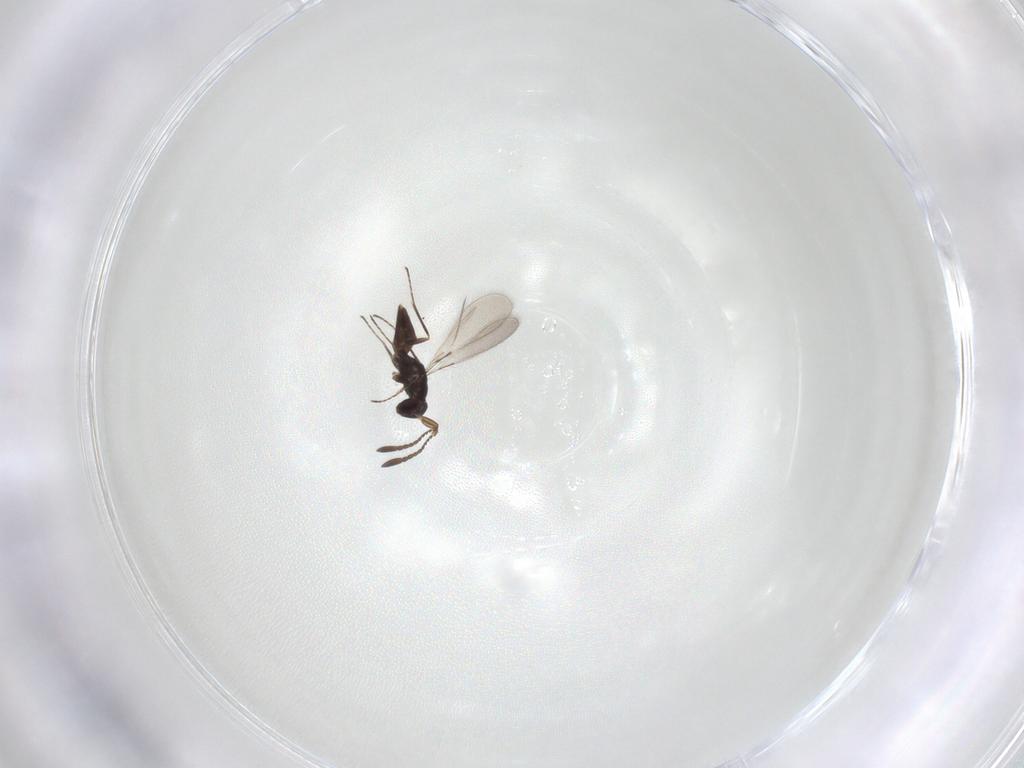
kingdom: Animalia
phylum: Arthropoda
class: Insecta
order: Hymenoptera
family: Mymaridae
